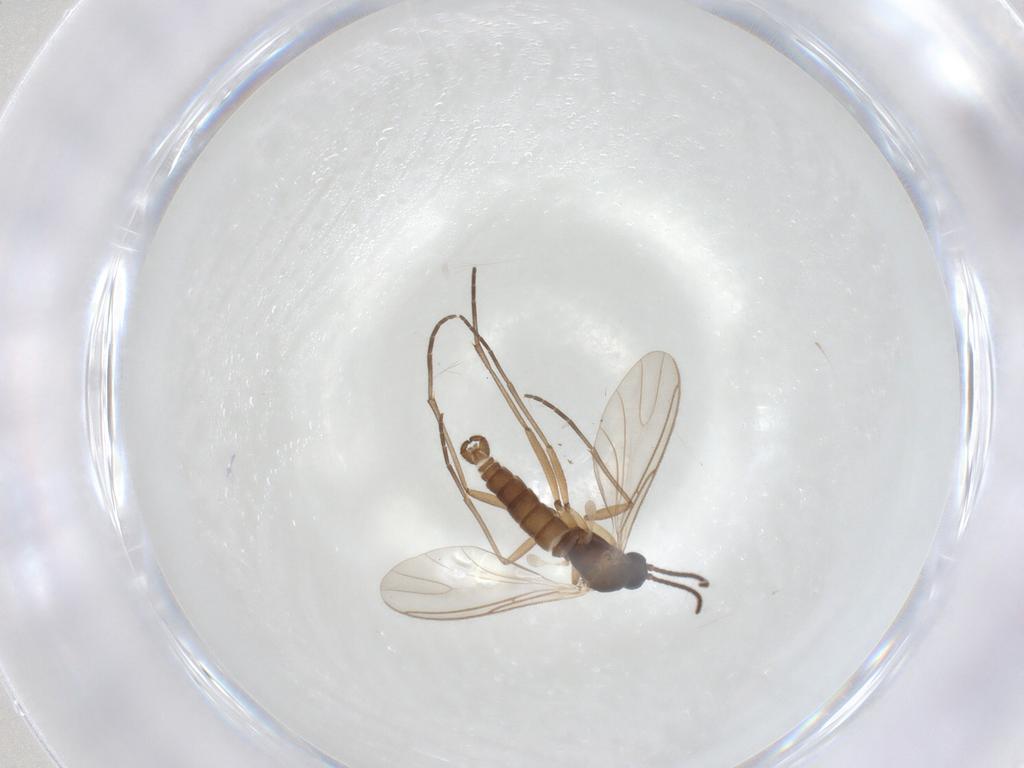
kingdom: Animalia
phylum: Arthropoda
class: Insecta
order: Diptera
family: Sciaridae
